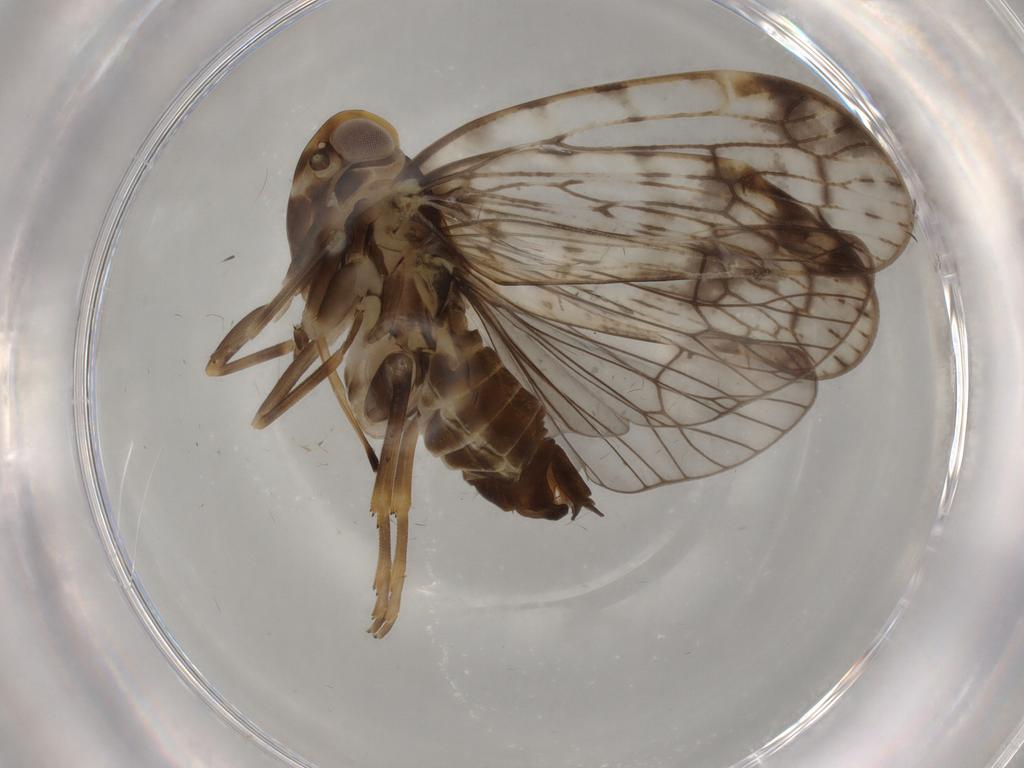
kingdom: Animalia
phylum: Arthropoda
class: Insecta
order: Hemiptera
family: Cixiidae
